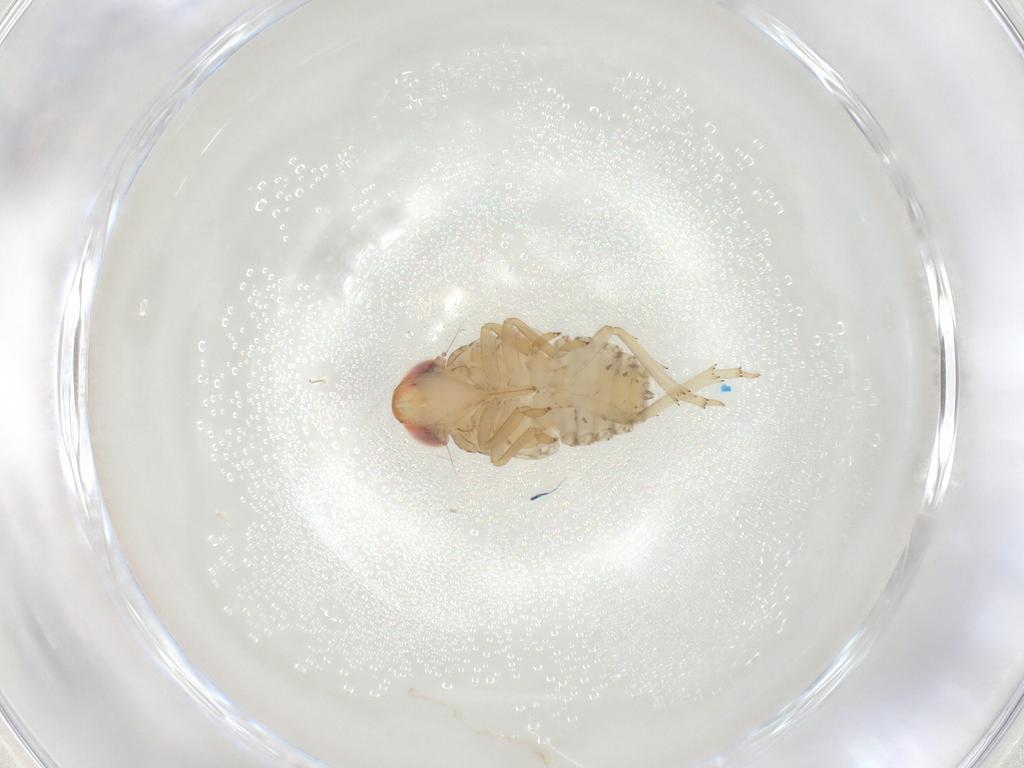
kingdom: Animalia
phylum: Arthropoda
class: Insecta
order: Hemiptera
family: Fulgoroidea_incertae_sedis
